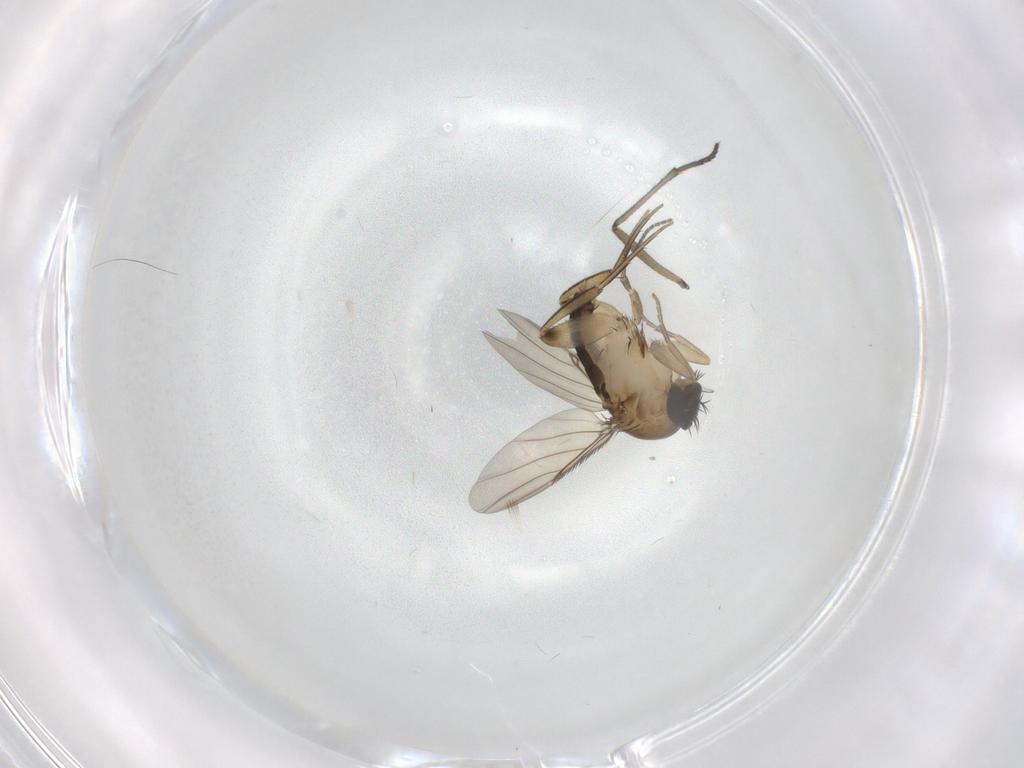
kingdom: Animalia
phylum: Arthropoda
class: Insecta
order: Diptera
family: Phoridae
